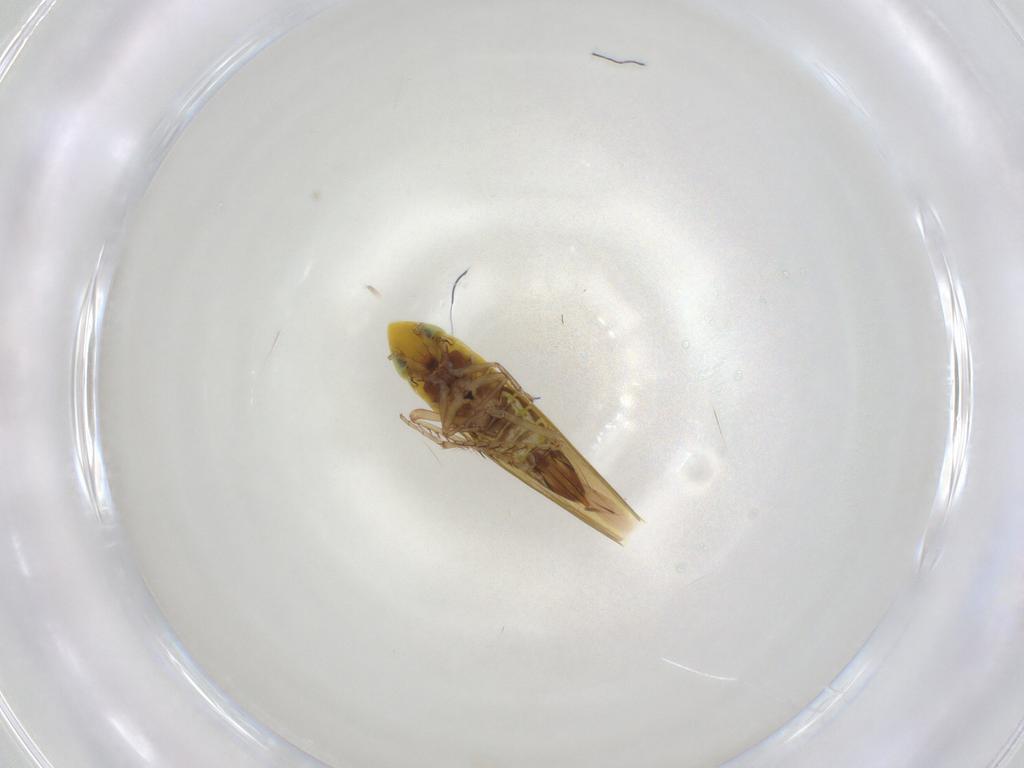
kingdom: Animalia
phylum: Arthropoda
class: Insecta
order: Hemiptera
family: Cicadellidae
